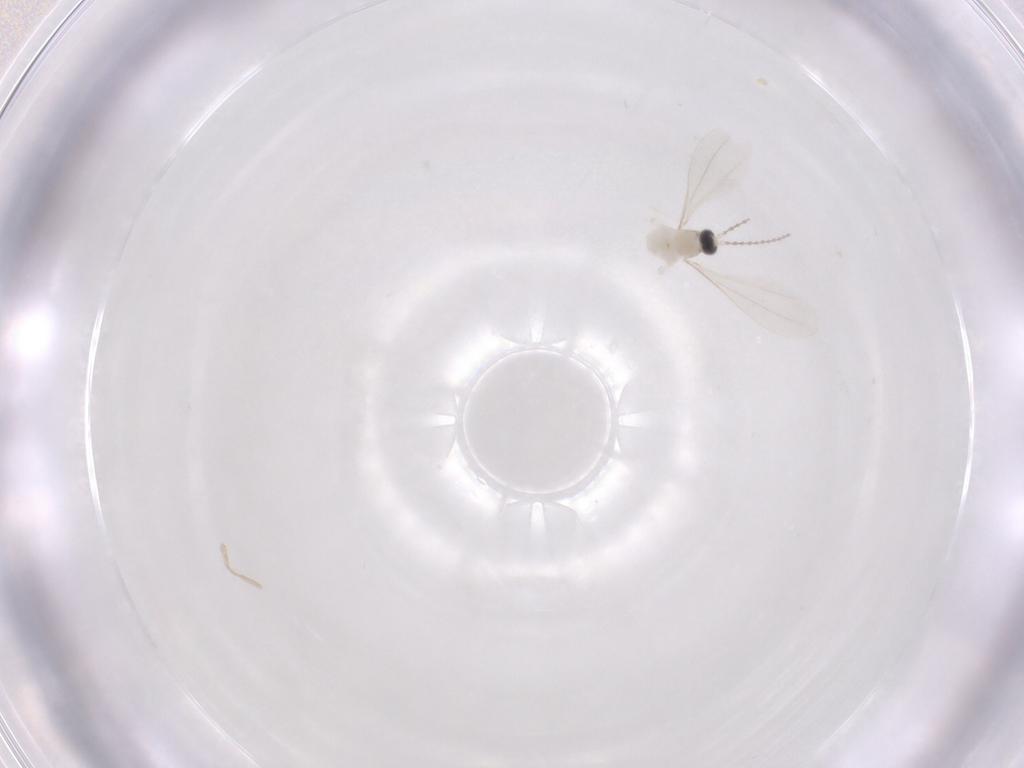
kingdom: Animalia
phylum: Arthropoda
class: Insecta
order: Diptera
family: Cecidomyiidae
